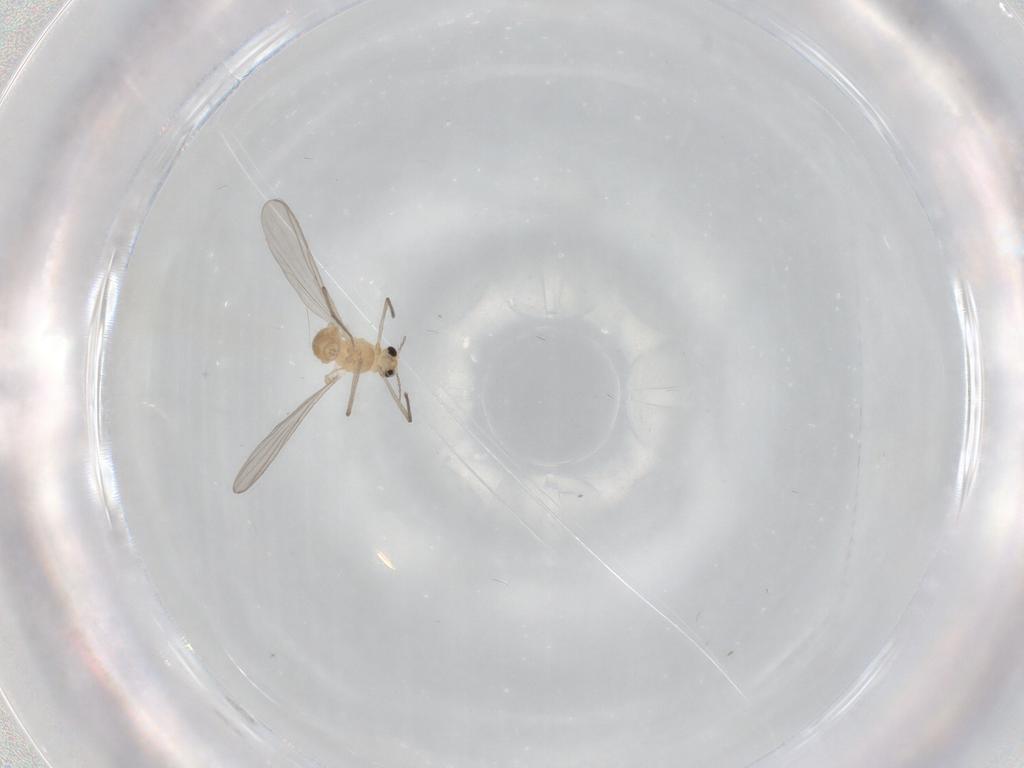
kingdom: Animalia
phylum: Arthropoda
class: Insecta
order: Diptera
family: Chironomidae
